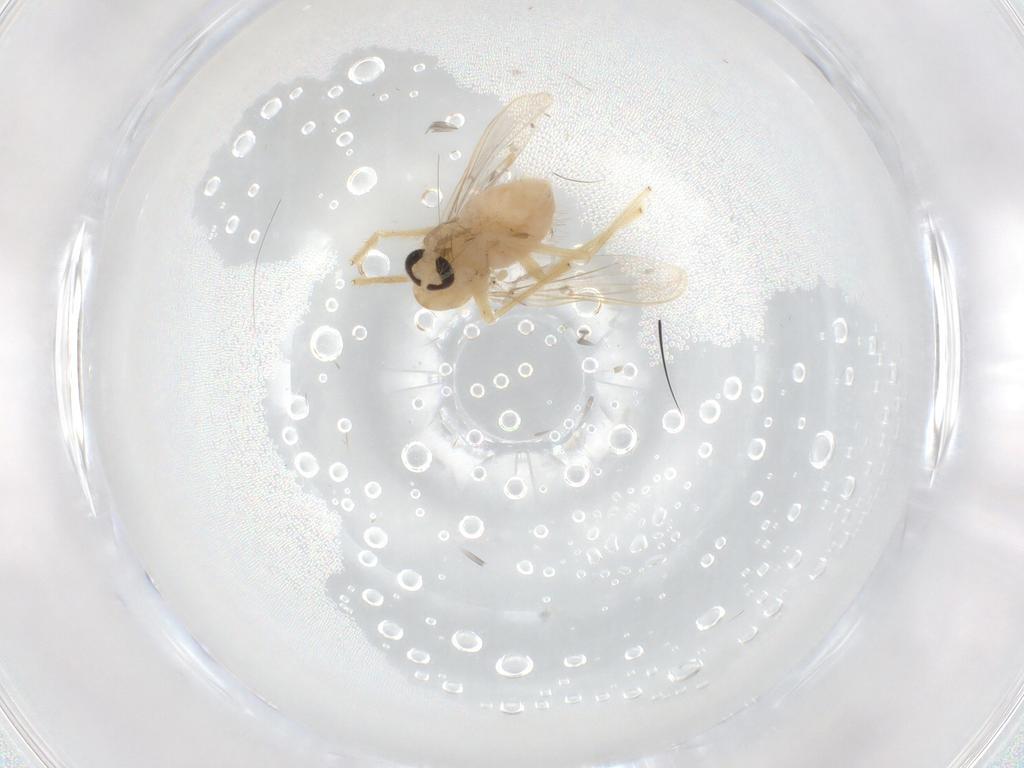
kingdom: Animalia
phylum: Arthropoda
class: Insecta
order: Diptera
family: Chironomidae
